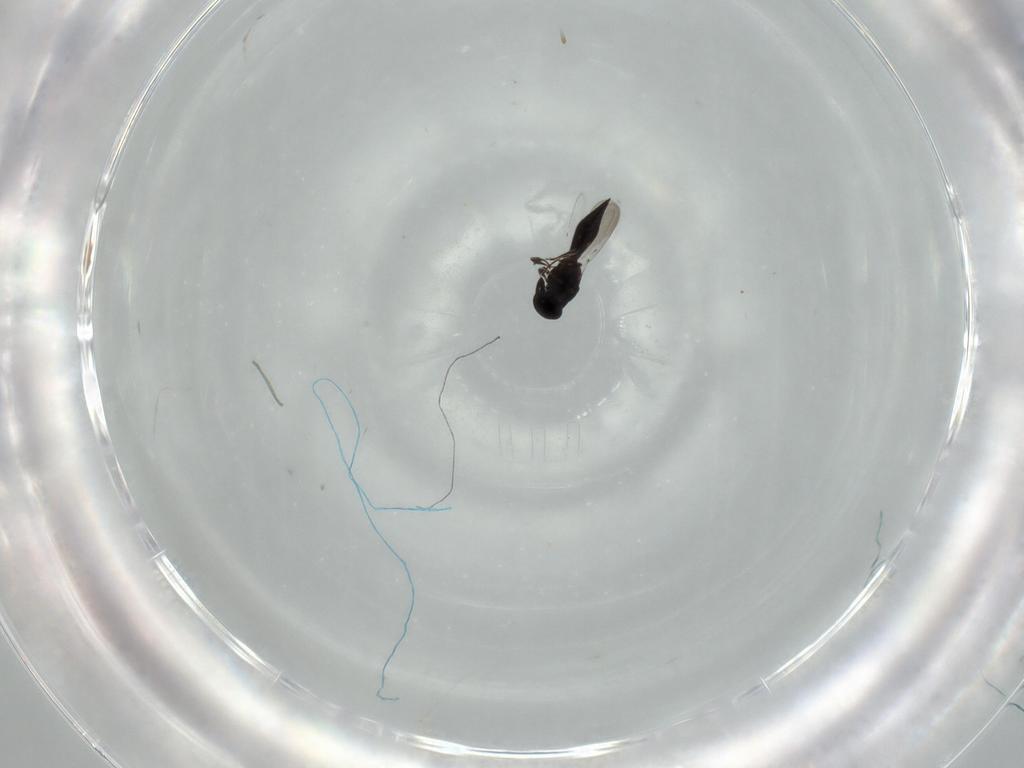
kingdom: Animalia
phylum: Arthropoda
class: Insecta
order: Hymenoptera
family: Platygastridae
